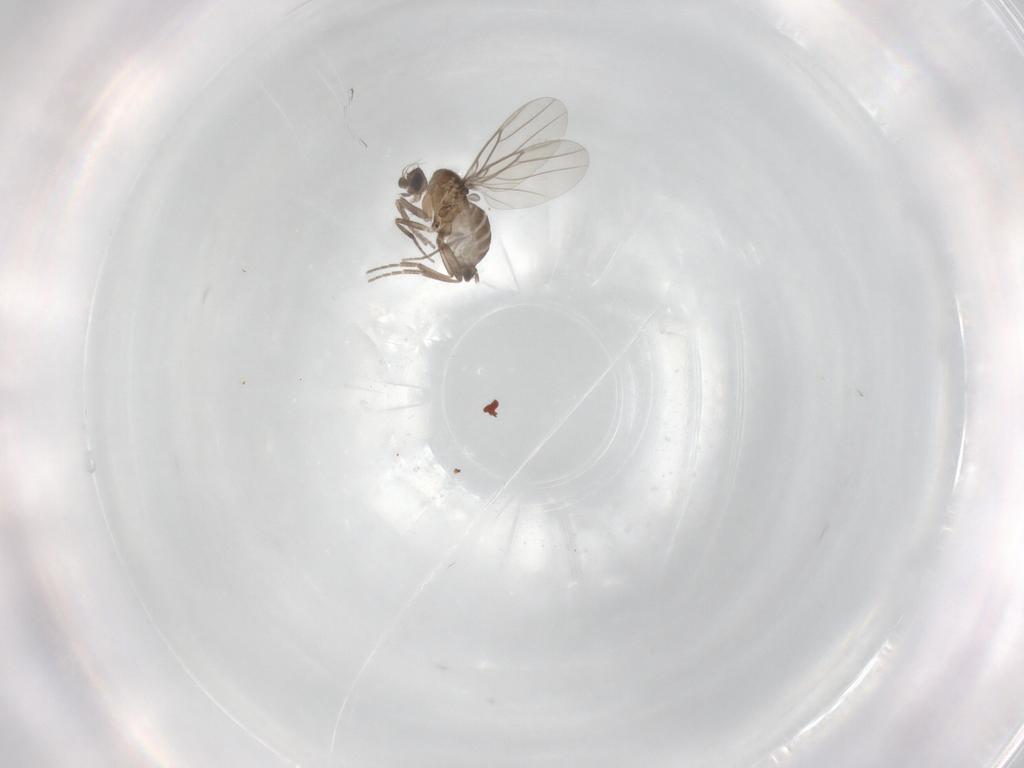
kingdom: Animalia
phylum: Arthropoda
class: Insecta
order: Diptera
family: Phoridae
